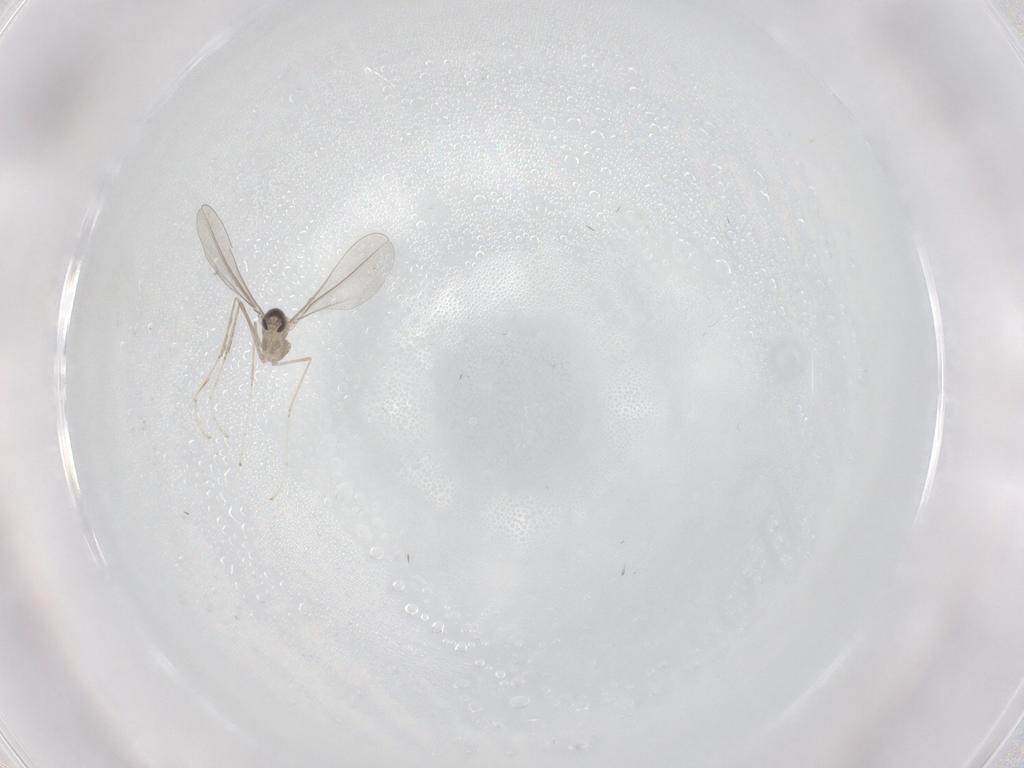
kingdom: Animalia
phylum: Arthropoda
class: Insecta
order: Diptera
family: Cecidomyiidae
